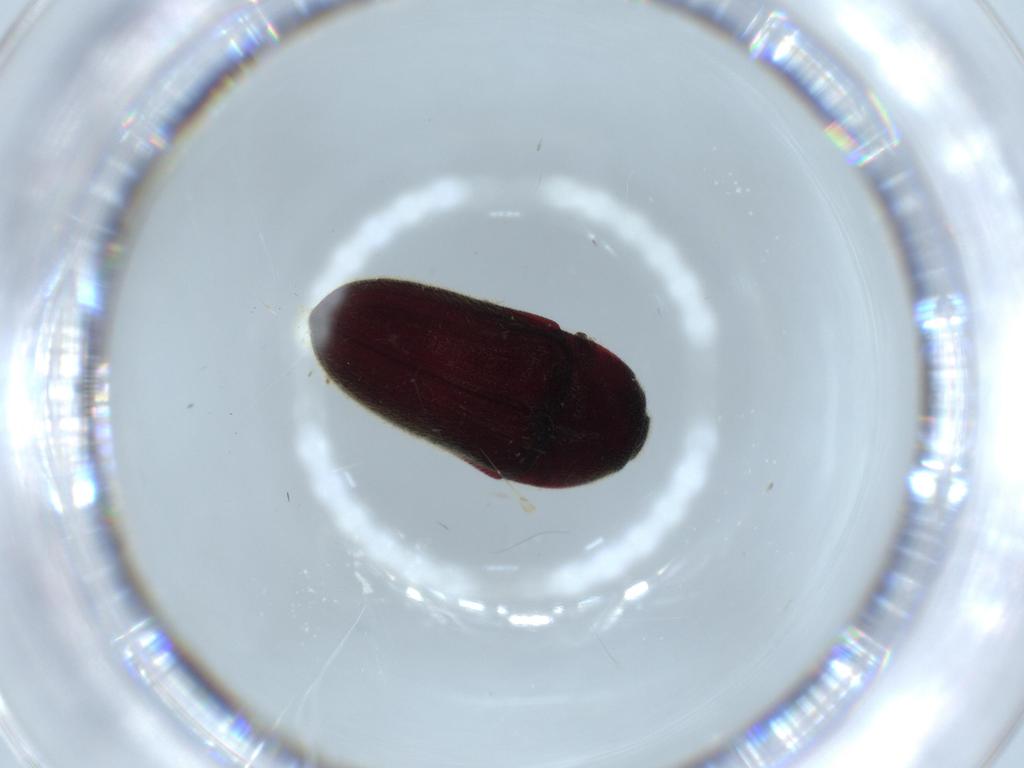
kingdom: Animalia
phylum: Arthropoda
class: Insecta
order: Coleoptera
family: Throscidae
